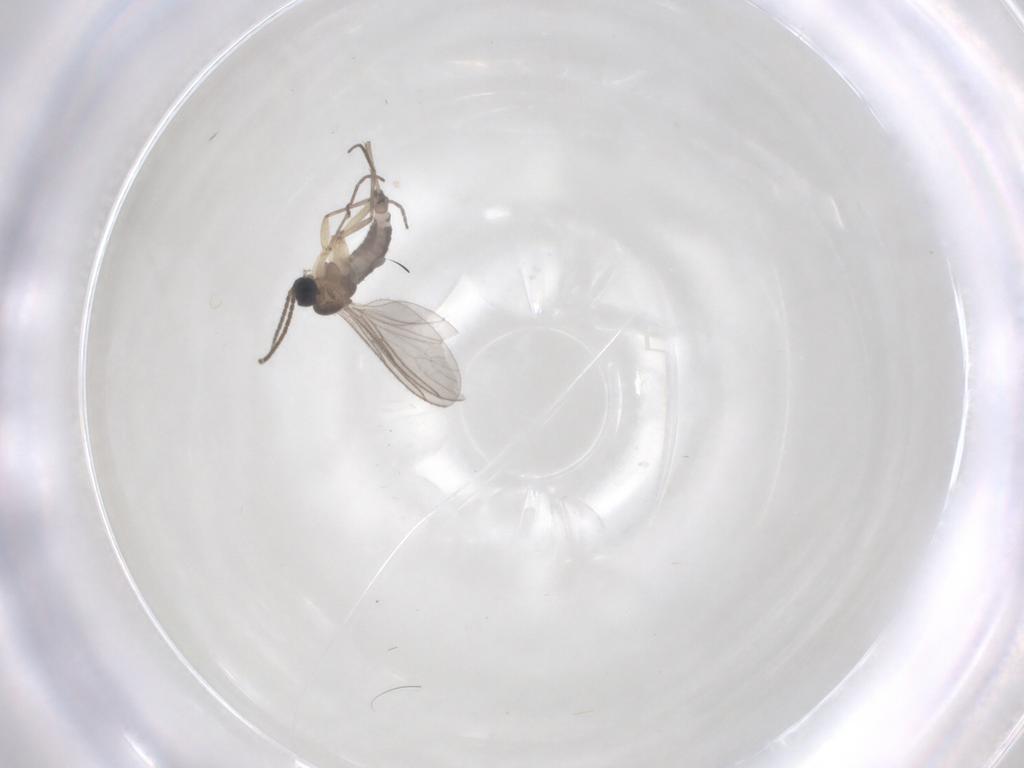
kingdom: Animalia
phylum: Arthropoda
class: Insecta
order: Diptera
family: Sciaridae
